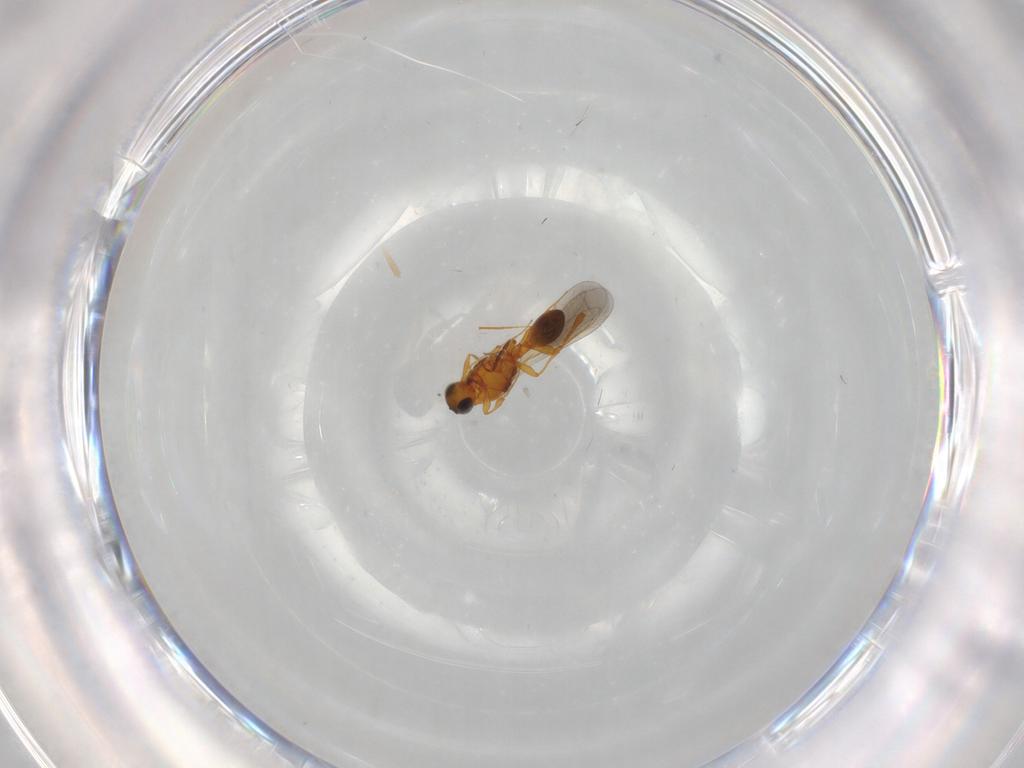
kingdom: Animalia
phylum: Arthropoda
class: Insecta
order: Hymenoptera
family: Platygastridae
